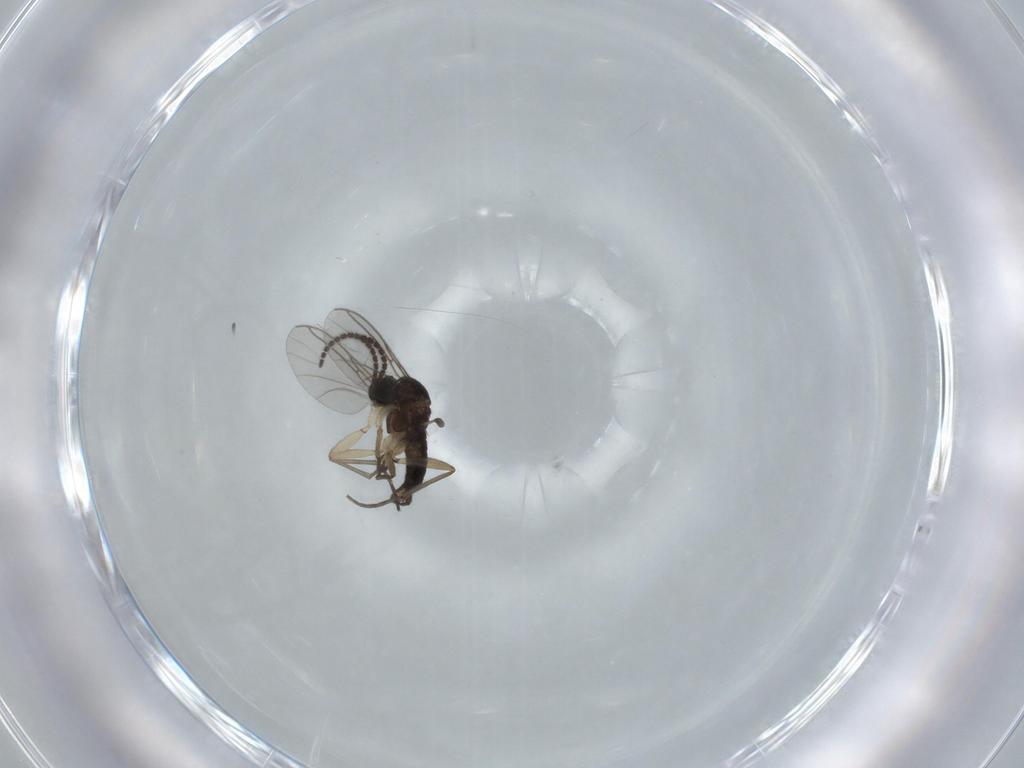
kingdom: Animalia
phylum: Arthropoda
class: Insecta
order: Diptera
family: Sciaridae
